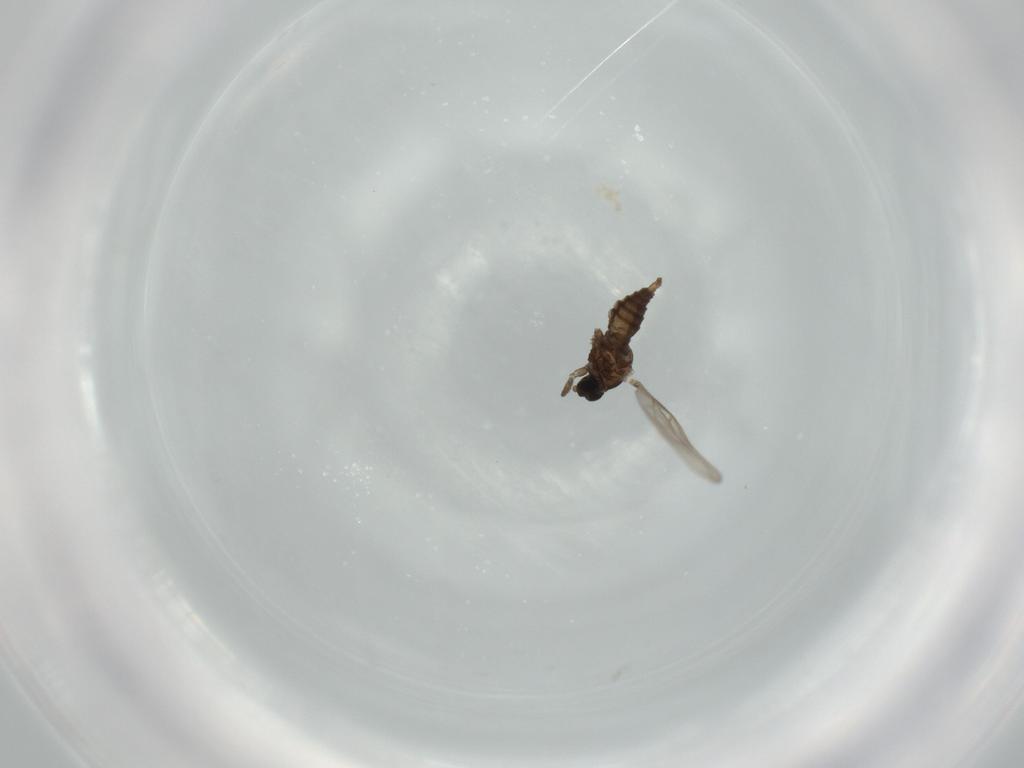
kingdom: Animalia
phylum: Arthropoda
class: Insecta
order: Diptera
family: Cecidomyiidae
